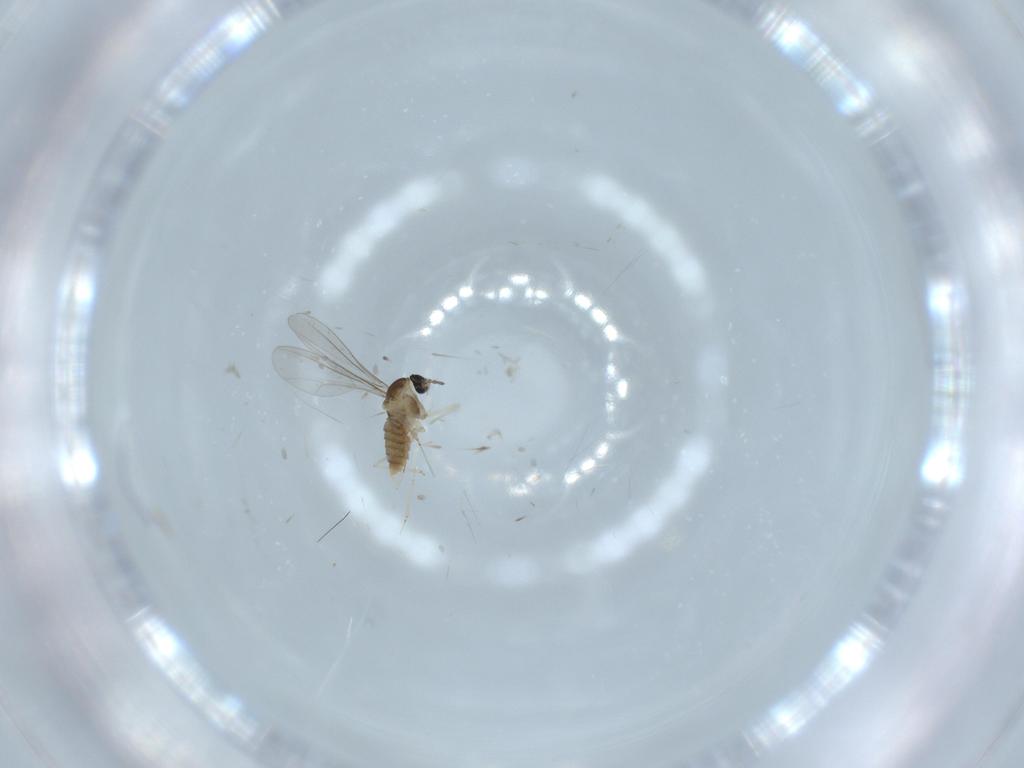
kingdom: Animalia
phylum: Arthropoda
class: Insecta
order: Diptera
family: Cecidomyiidae
